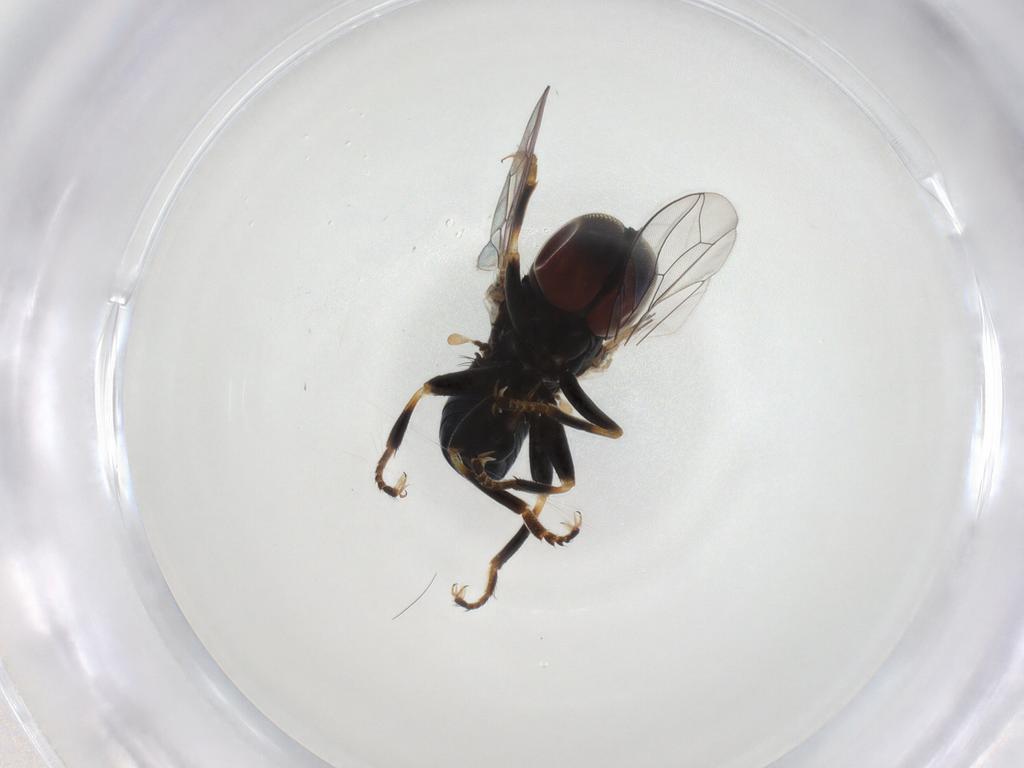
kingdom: Animalia
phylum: Arthropoda
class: Insecta
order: Diptera
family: Pipunculidae
